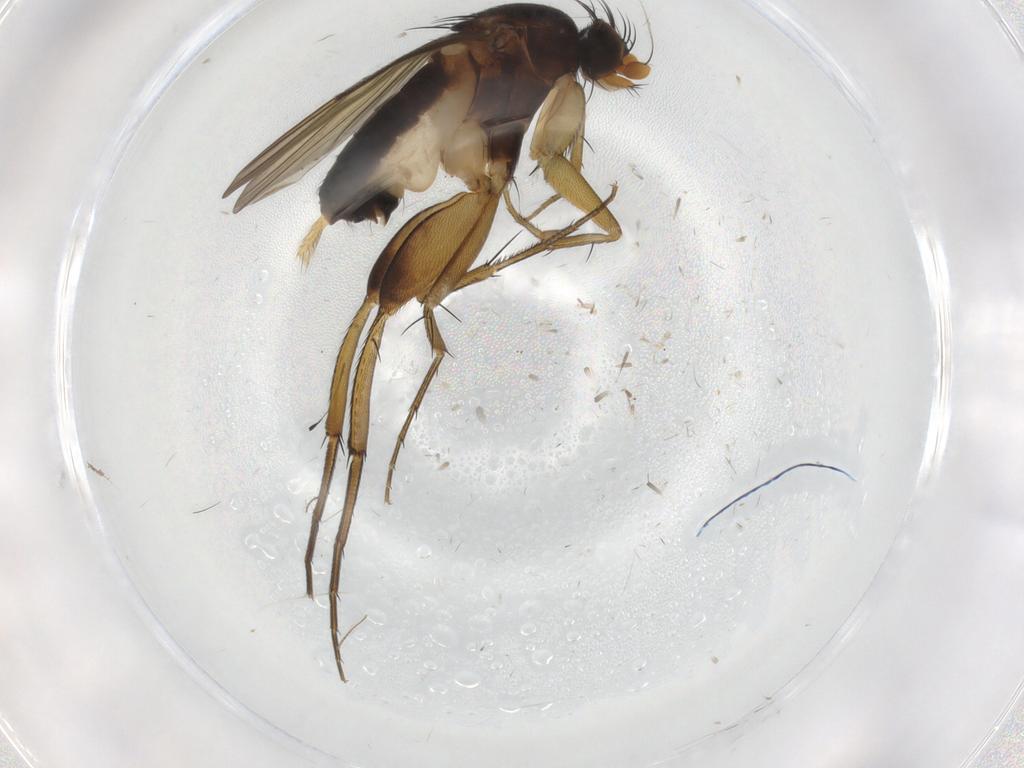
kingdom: Animalia
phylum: Arthropoda
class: Insecta
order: Diptera
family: Phoridae
